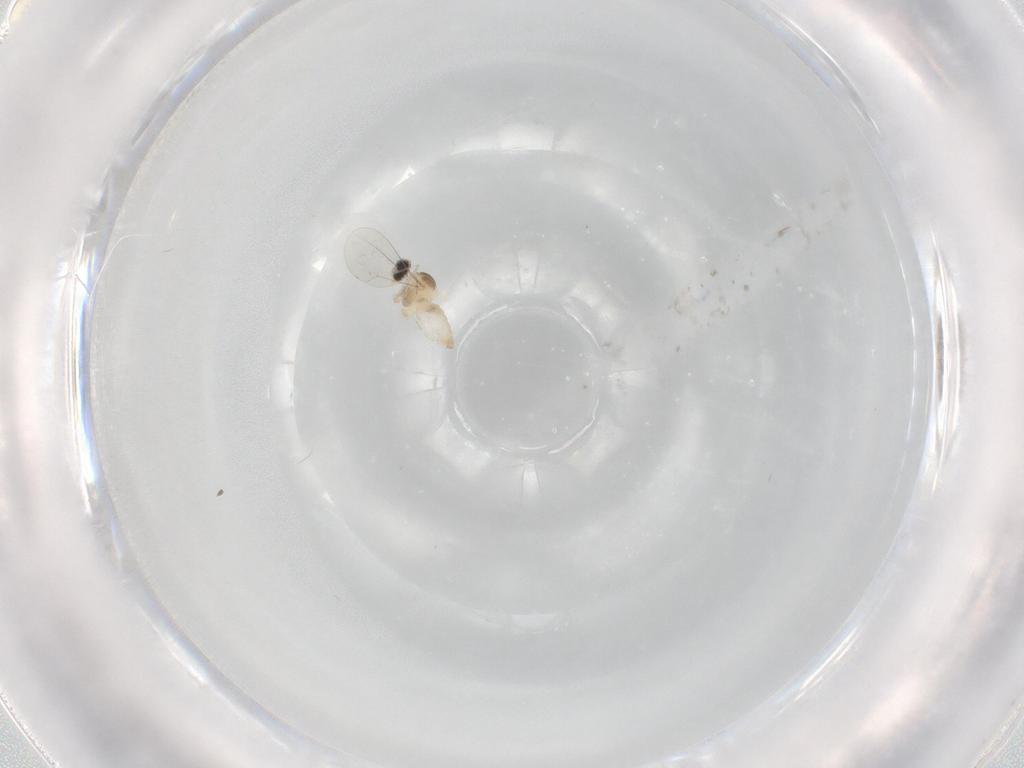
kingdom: Animalia
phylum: Arthropoda
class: Insecta
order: Diptera
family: Cecidomyiidae
